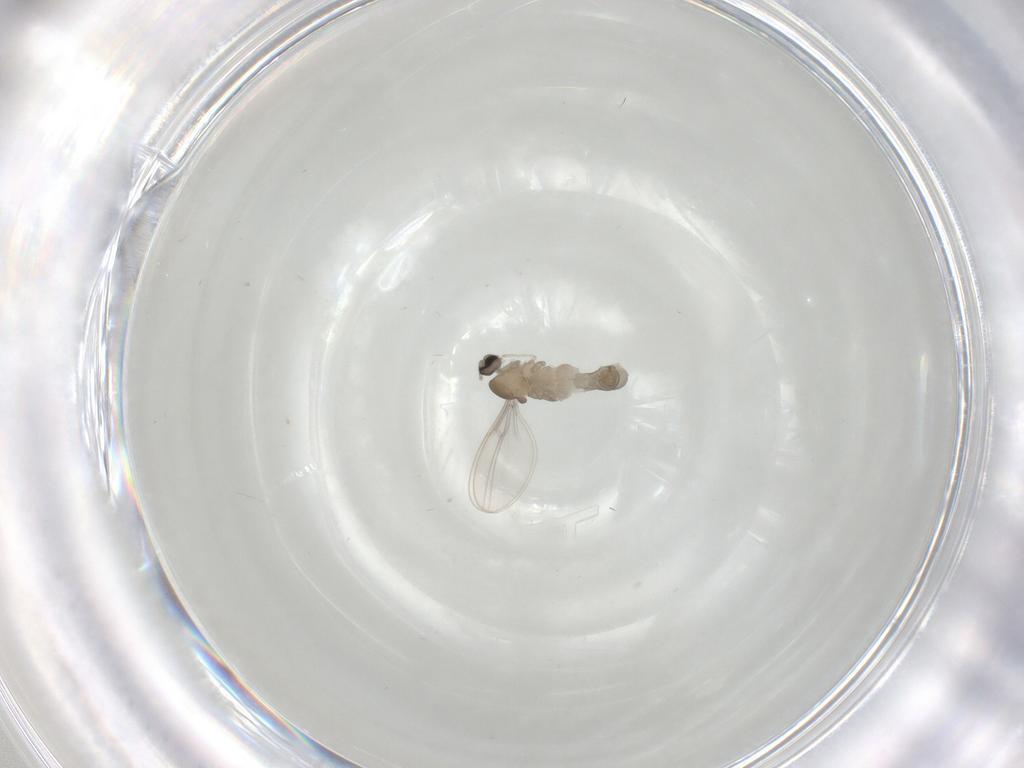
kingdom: Animalia
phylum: Arthropoda
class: Insecta
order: Diptera
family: Cecidomyiidae
